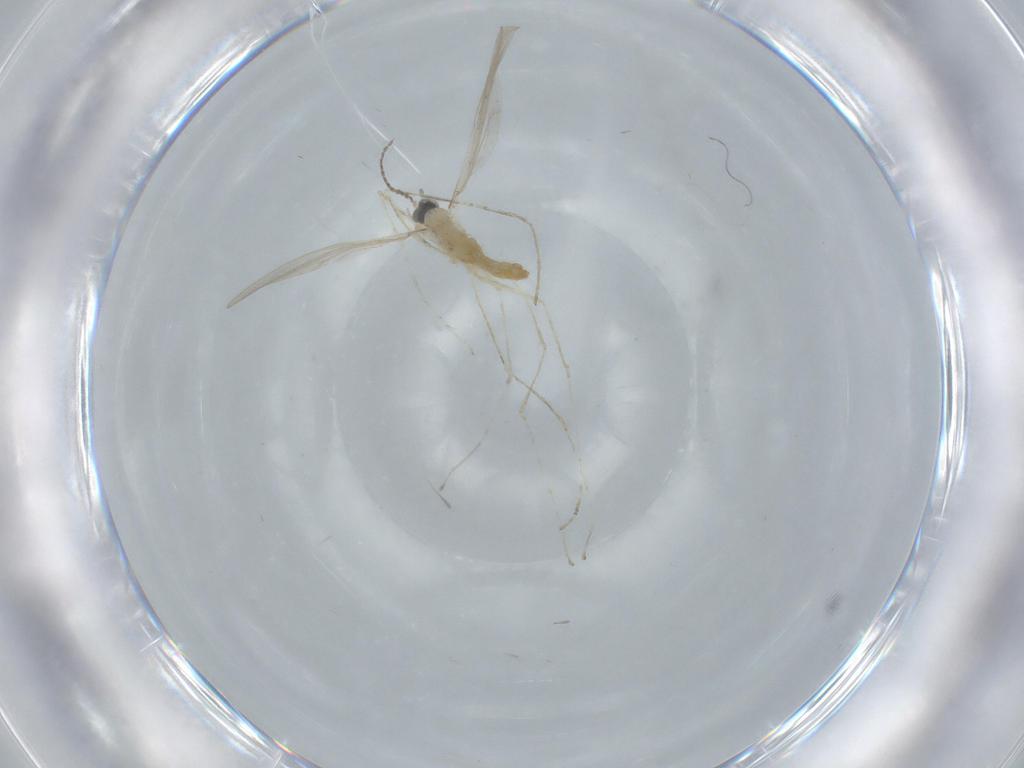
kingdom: Animalia
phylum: Arthropoda
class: Insecta
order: Diptera
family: Cecidomyiidae
